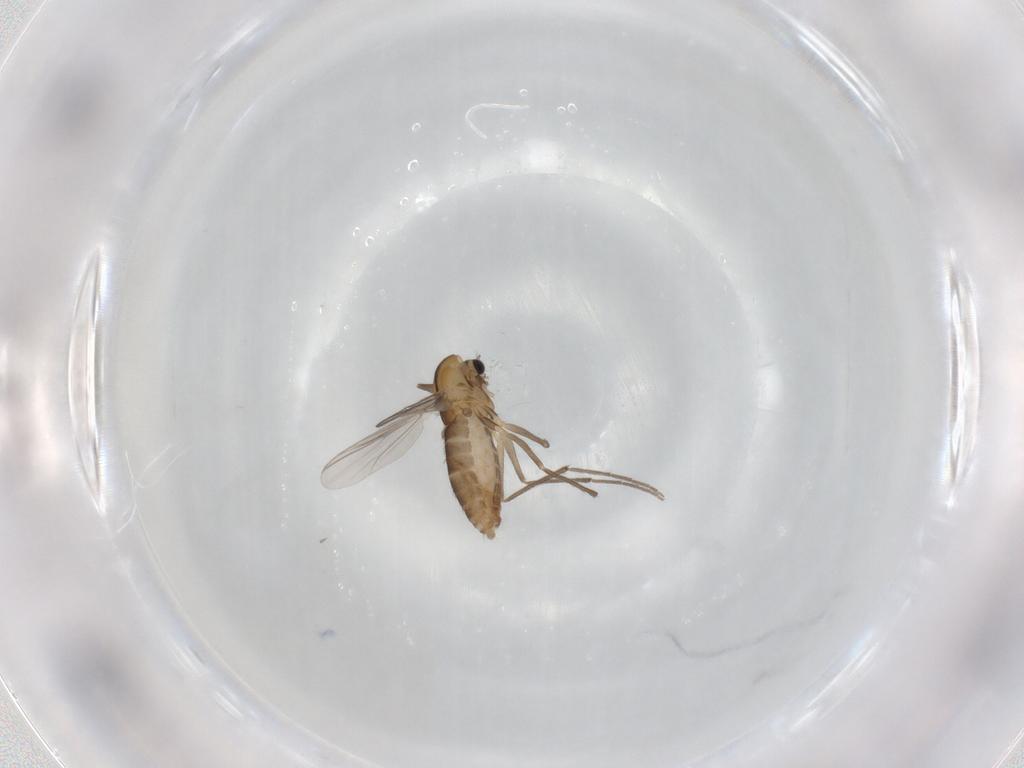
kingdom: Animalia
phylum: Arthropoda
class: Insecta
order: Diptera
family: Chironomidae
